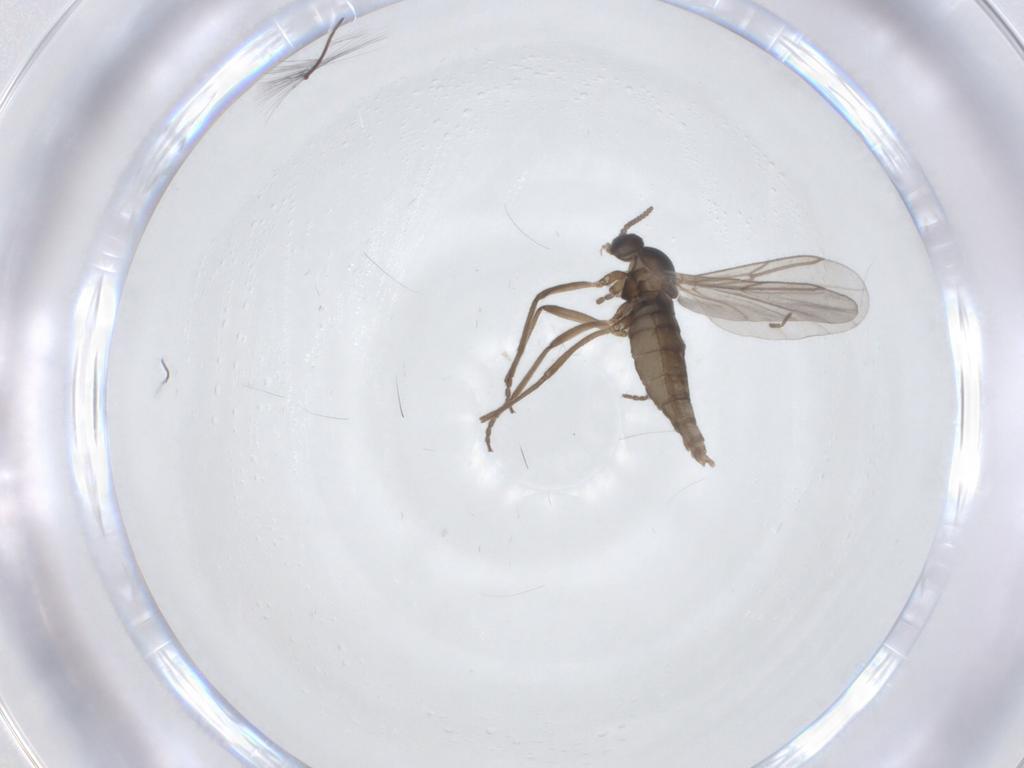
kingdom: Animalia
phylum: Arthropoda
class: Insecta
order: Diptera
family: Cecidomyiidae
